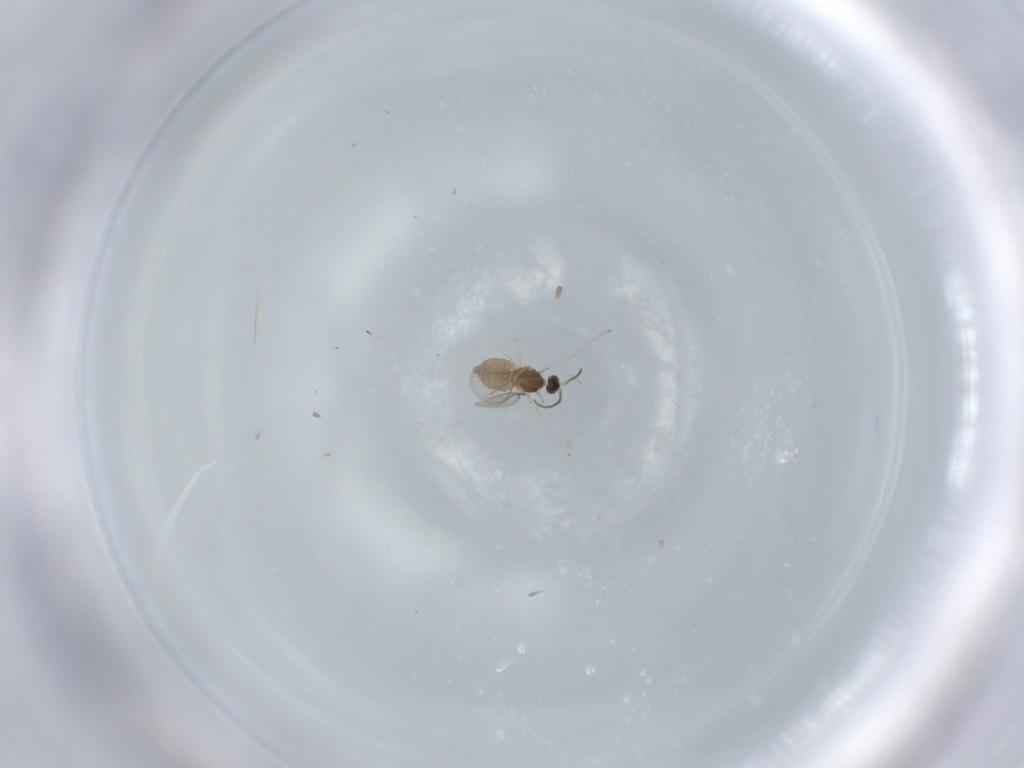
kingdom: Animalia
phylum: Arthropoda
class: Insecta
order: Diptera
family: Cecidomyiidae
